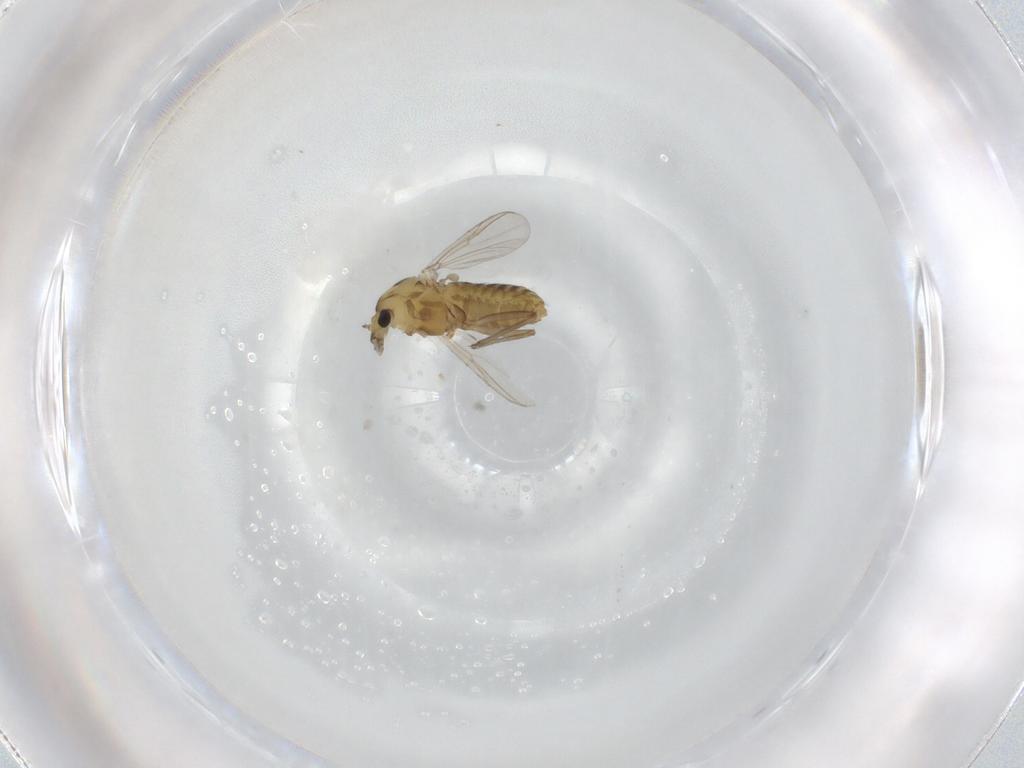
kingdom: Animalia
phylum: Arthropoda
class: Insecta
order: Diptera
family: Chironomidae
